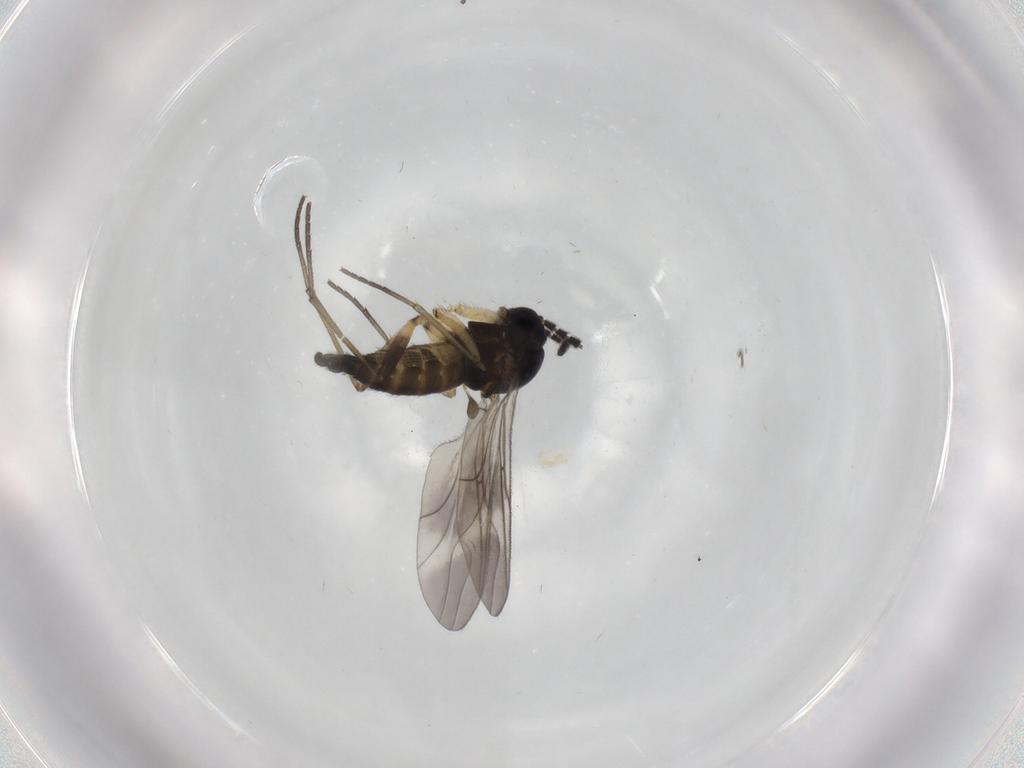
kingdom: Animalia
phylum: Arthropoda
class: Insecta
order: Diptera
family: Sciaridae
